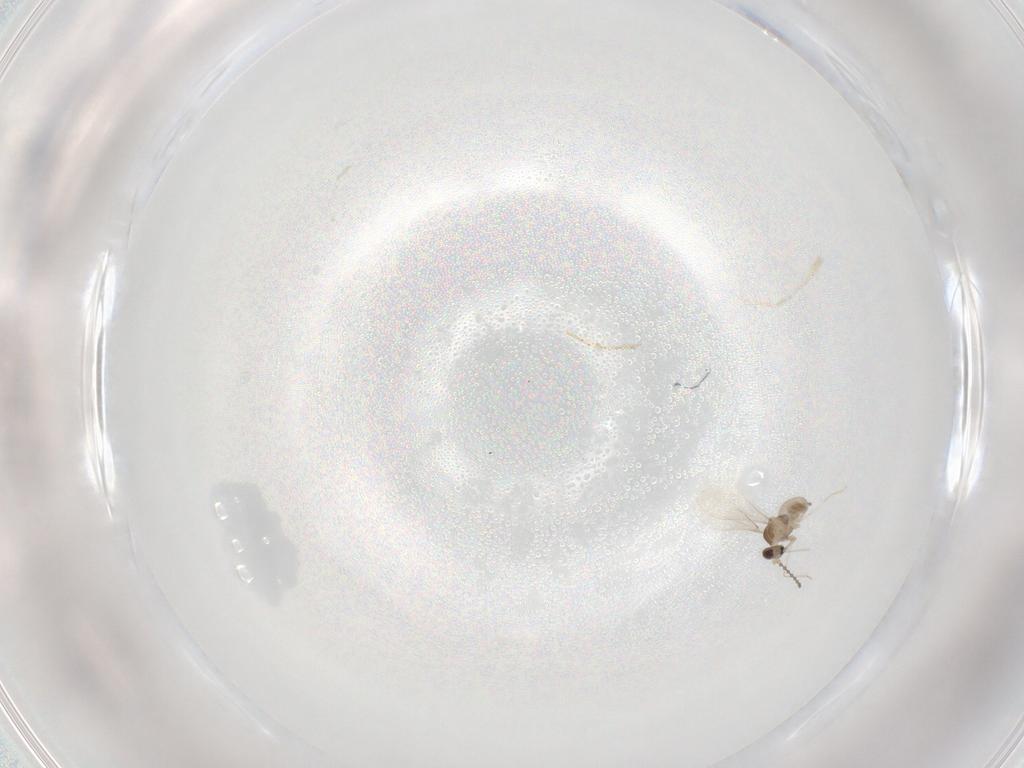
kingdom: Animalia
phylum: Arthropoda
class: Insecta
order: Diptera
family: Cecidomyiidae
